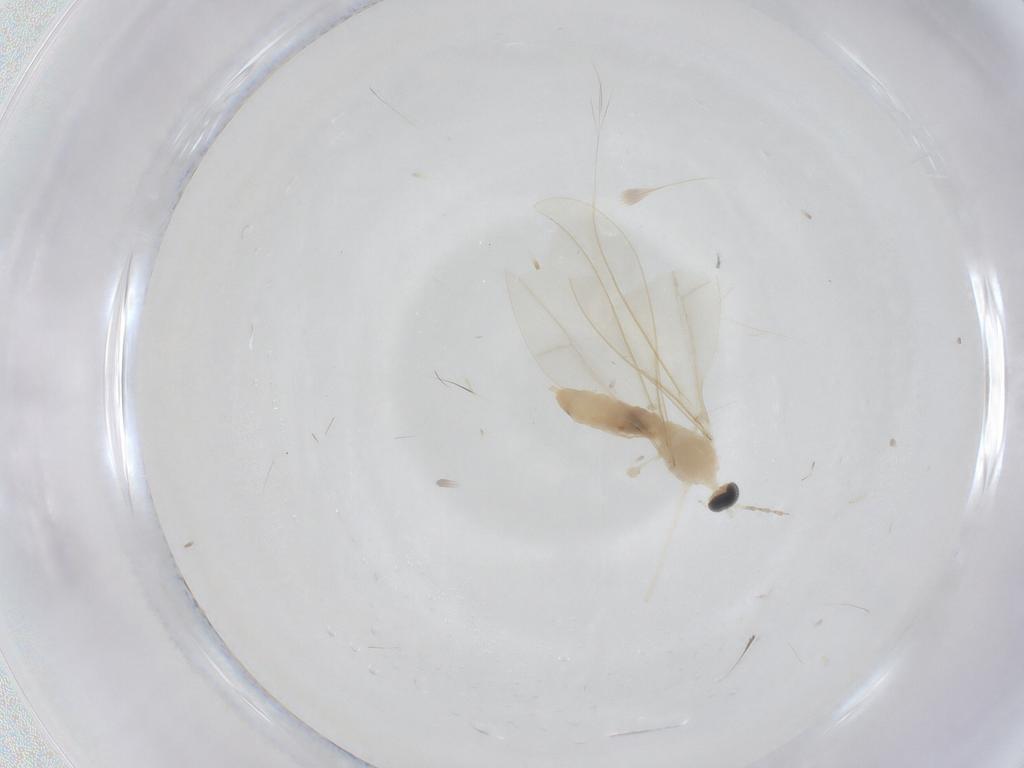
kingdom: Animalia
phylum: Arthropoda
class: Insecta
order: Diptera
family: Cecidomyiidae
